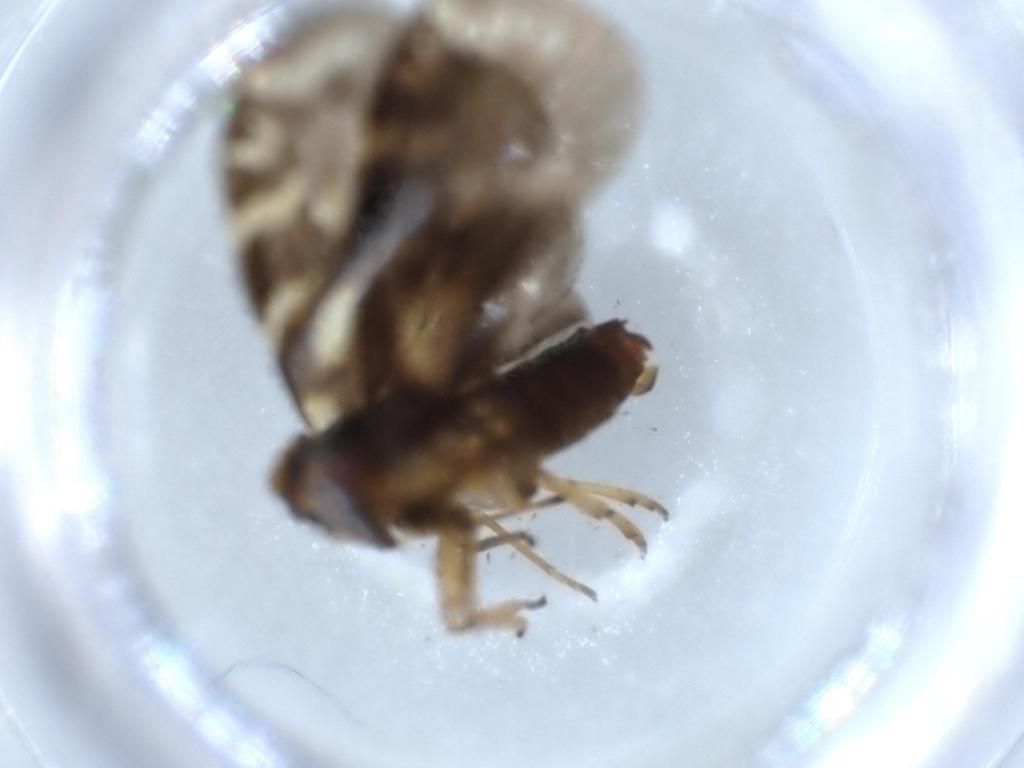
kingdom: Animalia
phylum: Arthropoda
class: Insecta
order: Hemiptera
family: Cixiidae
